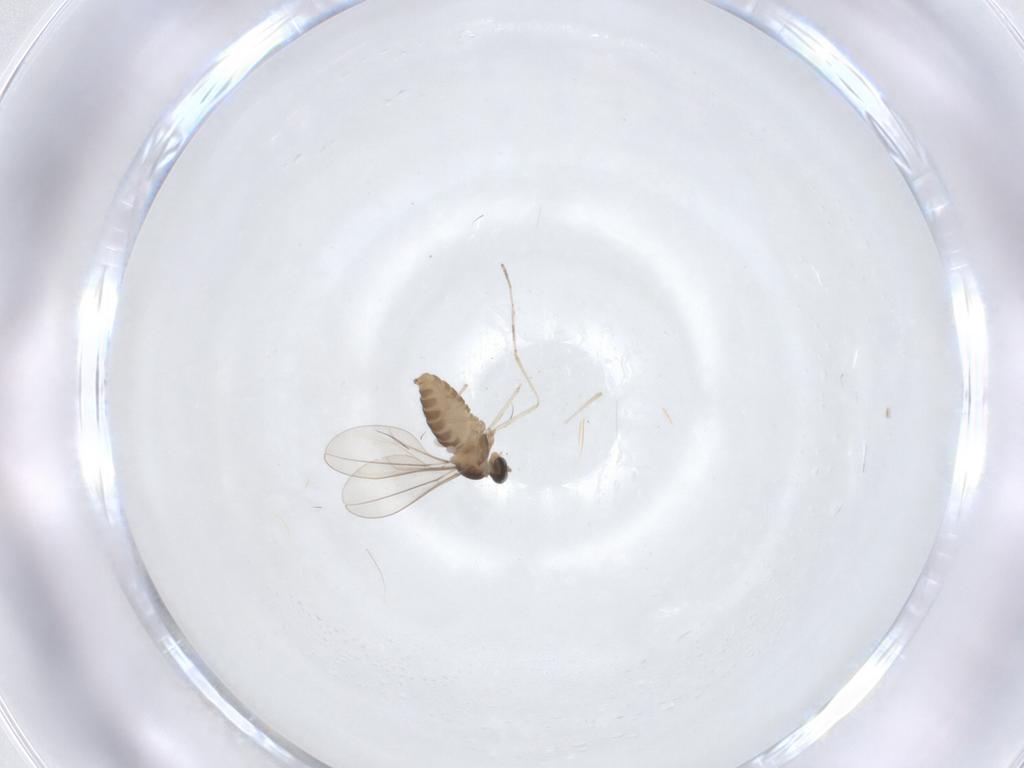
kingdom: Animalia
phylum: Arthropoda
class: Insecta
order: Diptera
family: Cecidomyiidae
